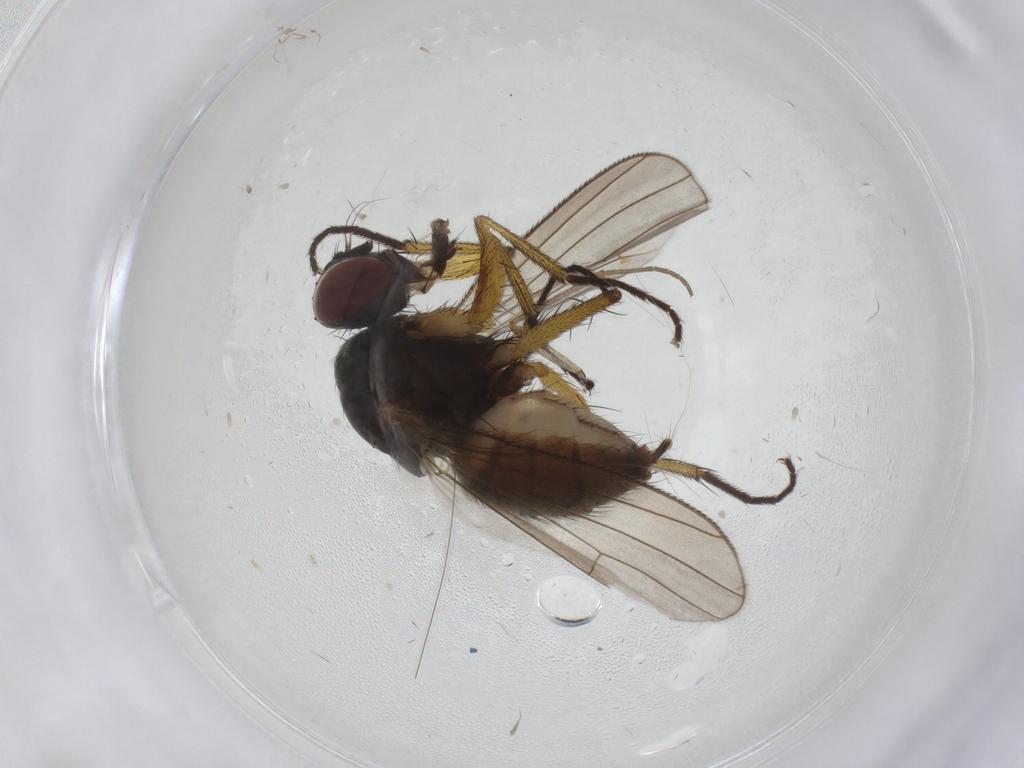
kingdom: Animalia
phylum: Arthropoda
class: Insecta
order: Diptera
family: Muscidae
